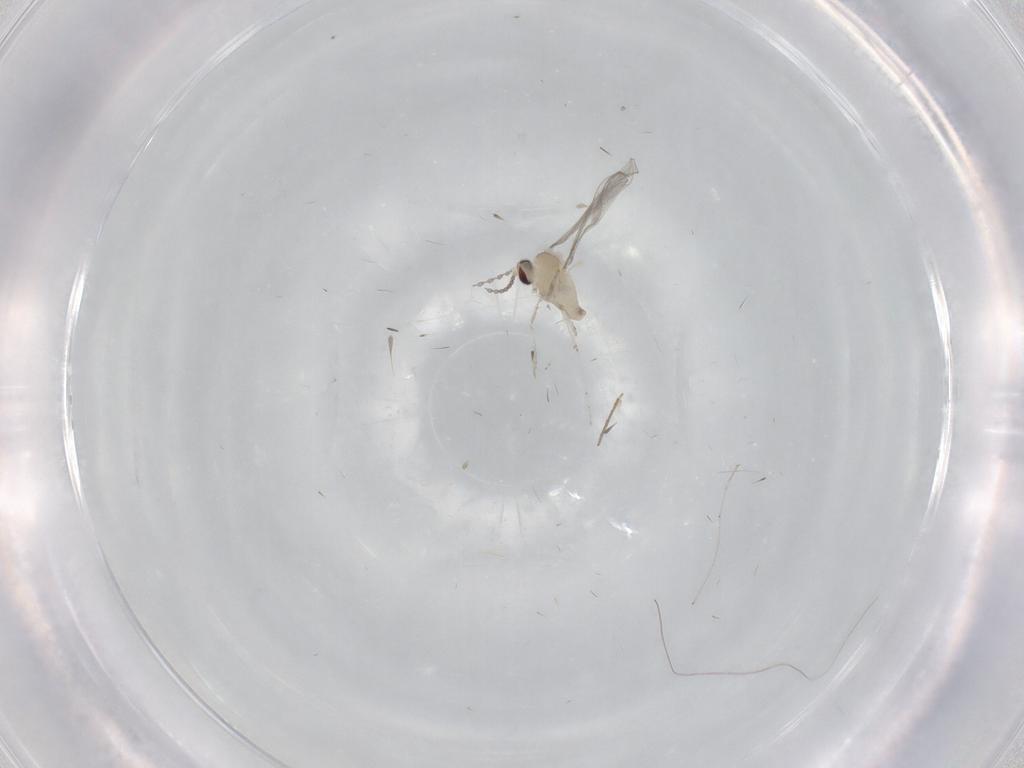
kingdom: Animalia
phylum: Arthropoda
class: Insecta
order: Diptera
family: Cecidomyiidae
